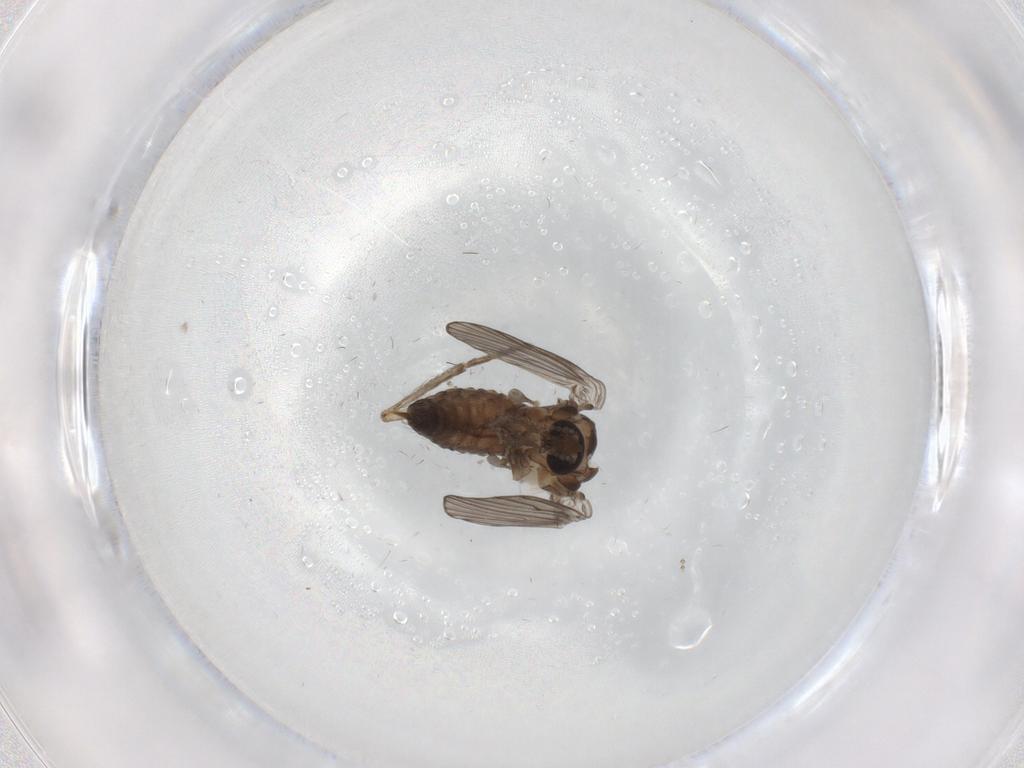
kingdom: Animalia
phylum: Arthropoda
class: Insecta
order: Diptera
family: Psychodidae
